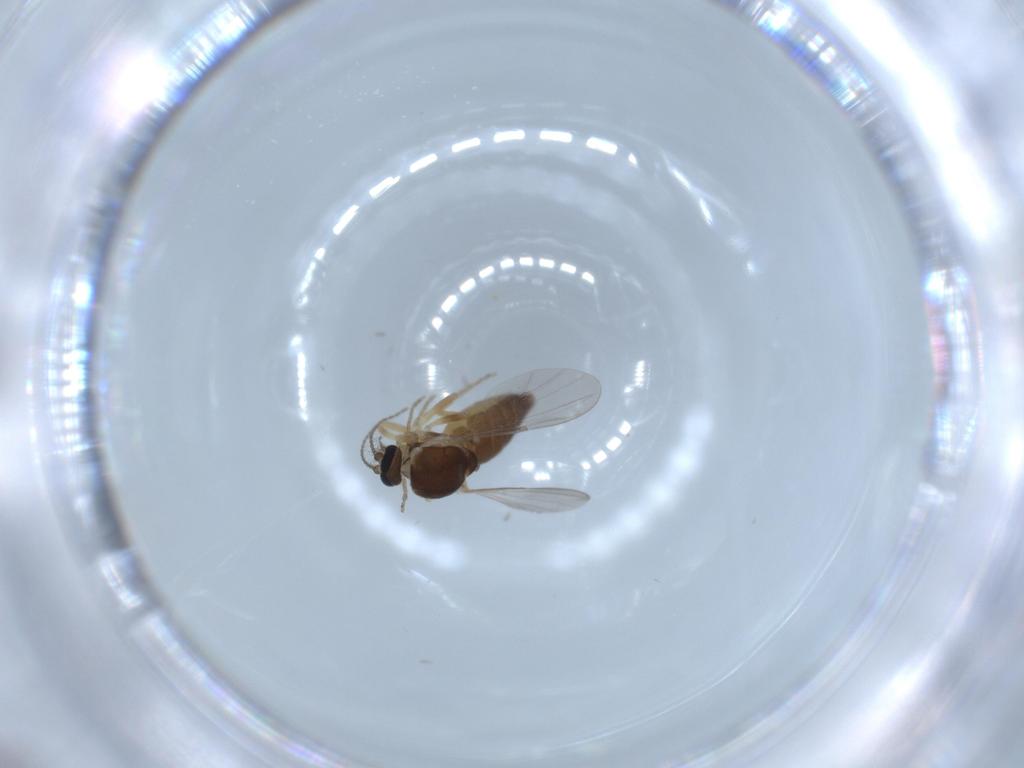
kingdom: Animalia
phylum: Arthropoda
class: Insecta
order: Diptera
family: Ceratopogonidae
